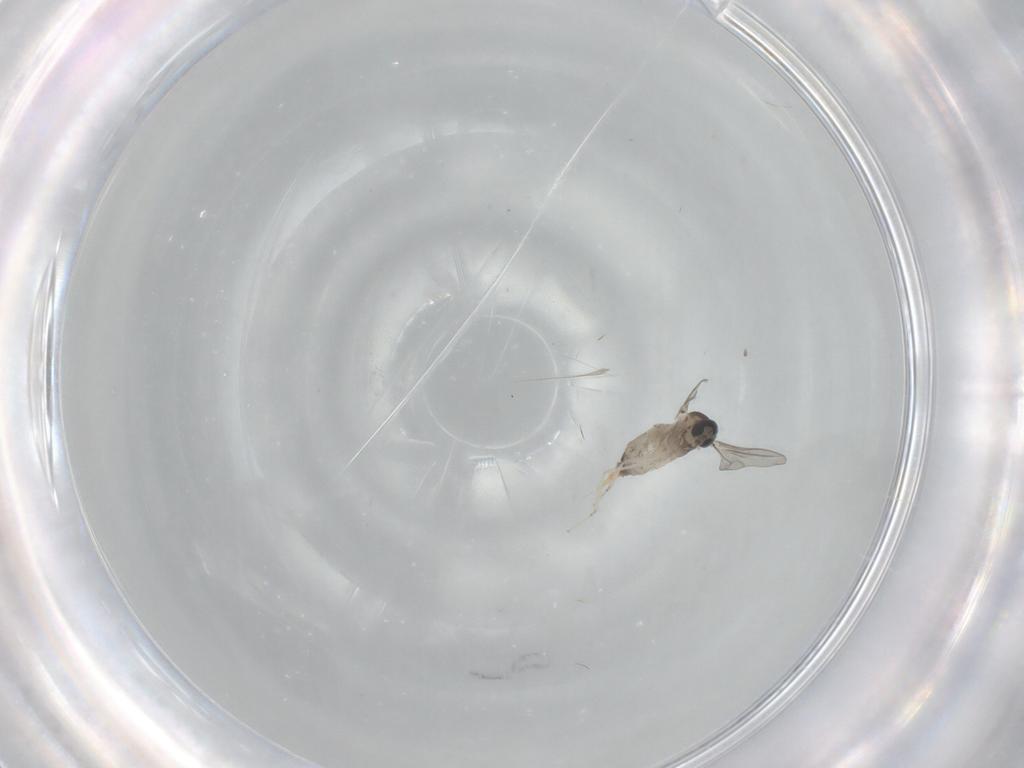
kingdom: Animalia
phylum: Arthropoda
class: Insecta
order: Diptera
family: Cecidomyiidae
